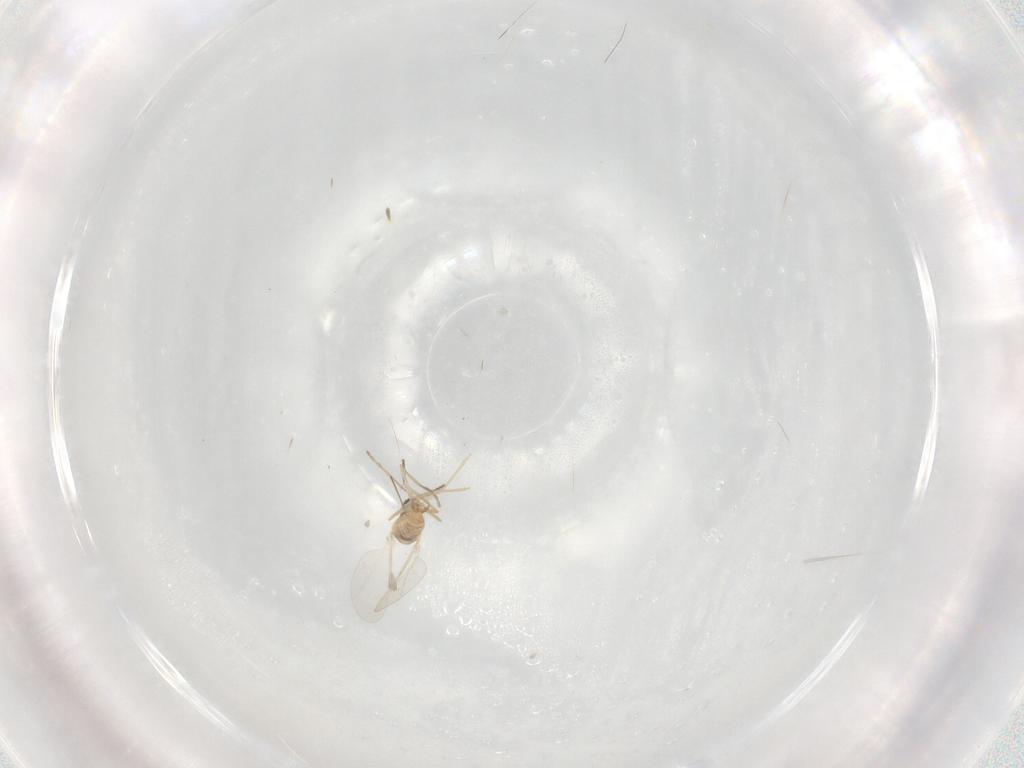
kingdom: Animalia
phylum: Arthropoda
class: Insecta
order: Diptera
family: Cecidomyiidae
